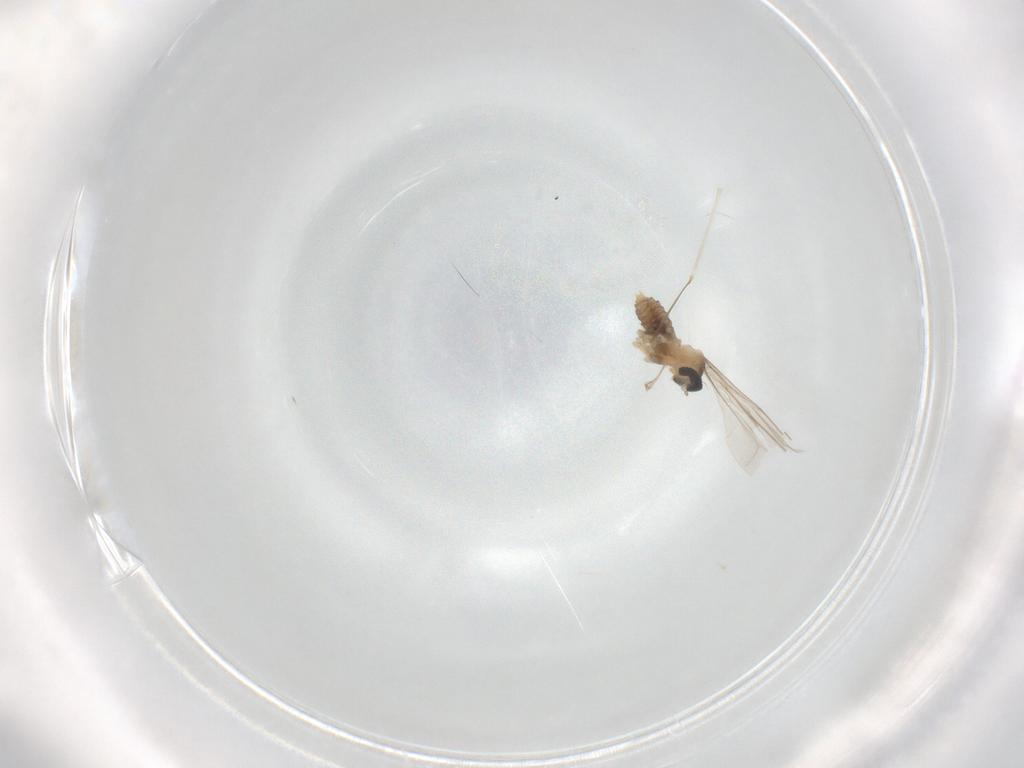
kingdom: Animalia
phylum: Arthropoda
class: Insecta
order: Diptera
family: Cecidomyiidae
